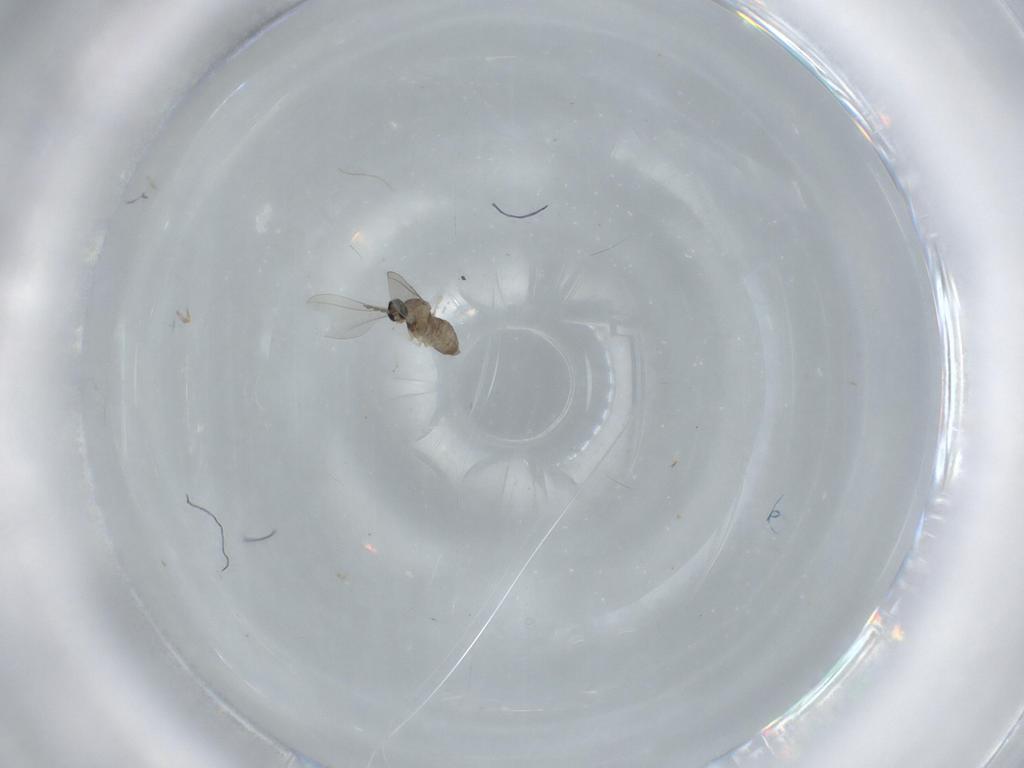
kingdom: Animalia
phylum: Arthropoda
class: Insecta
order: Diptera
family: Cecidomyiidae
